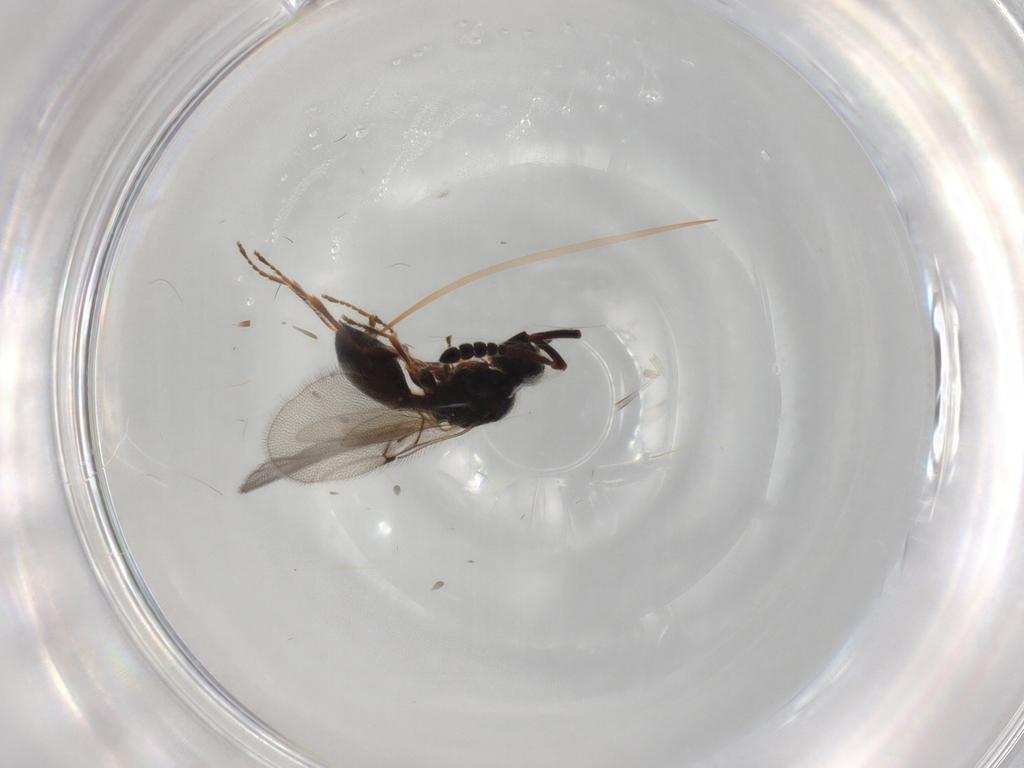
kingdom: Animalia
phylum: Arthropoda
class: Insecta
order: Hymenoptera
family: Diapriidae
